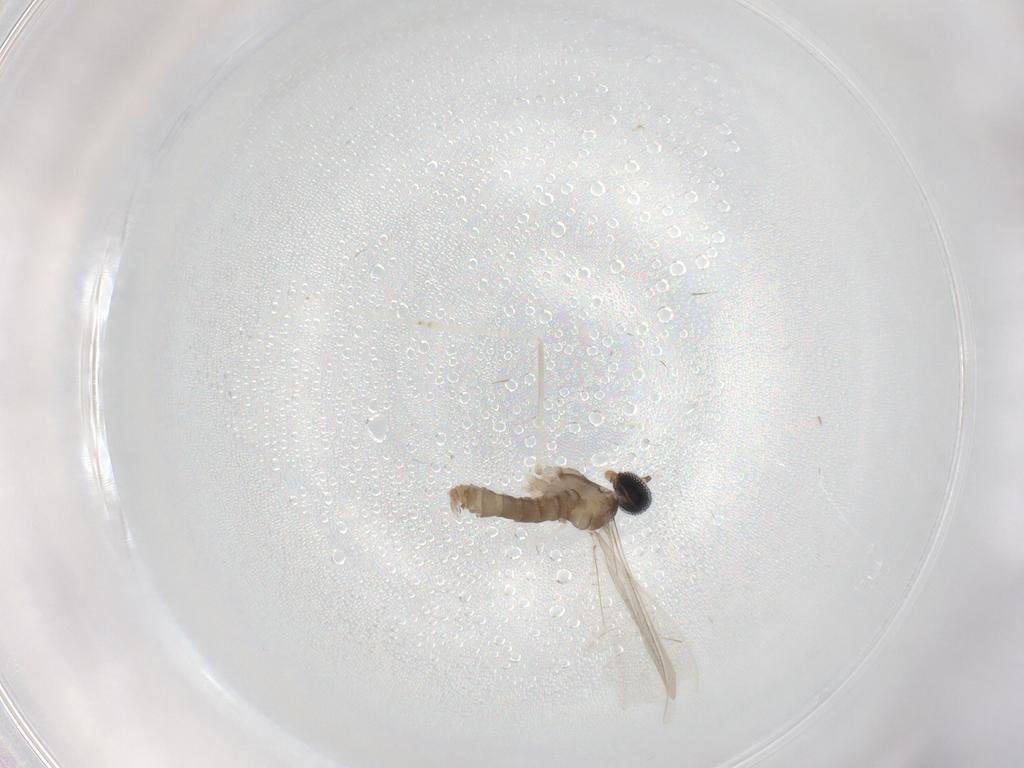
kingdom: Animalia
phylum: Arthropoda
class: Insecta
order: Diptera
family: Cecidomyiidae
